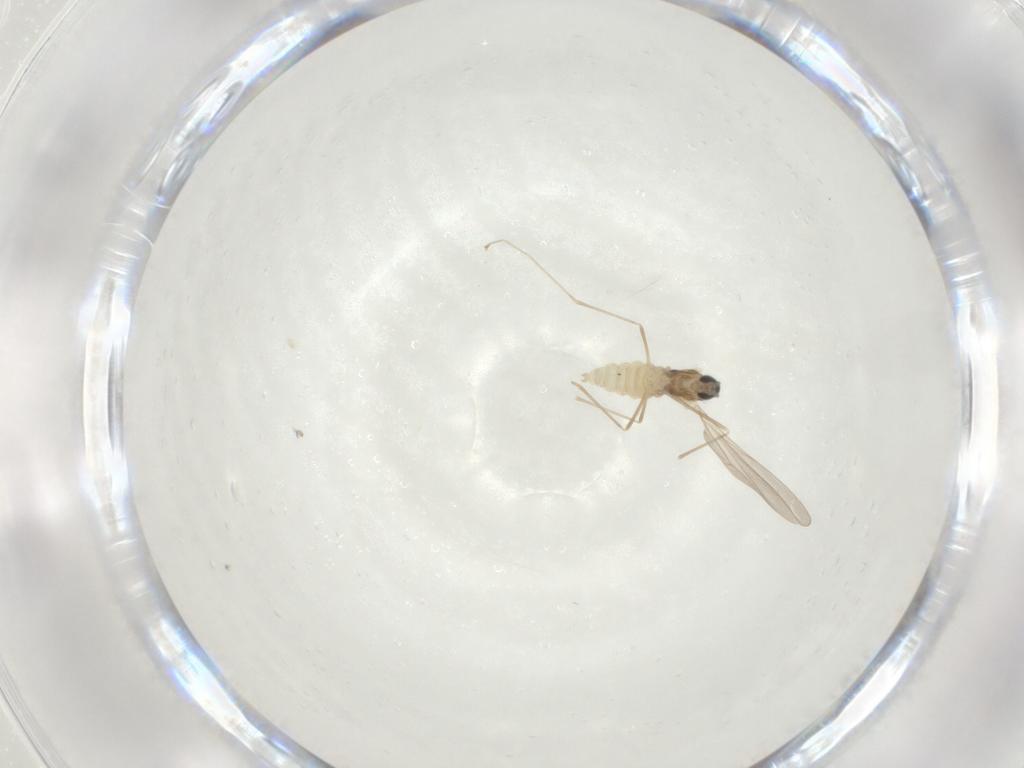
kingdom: Animalia
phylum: Arthropoda
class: Insecta
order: Diptera
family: Cecidomyiidae
